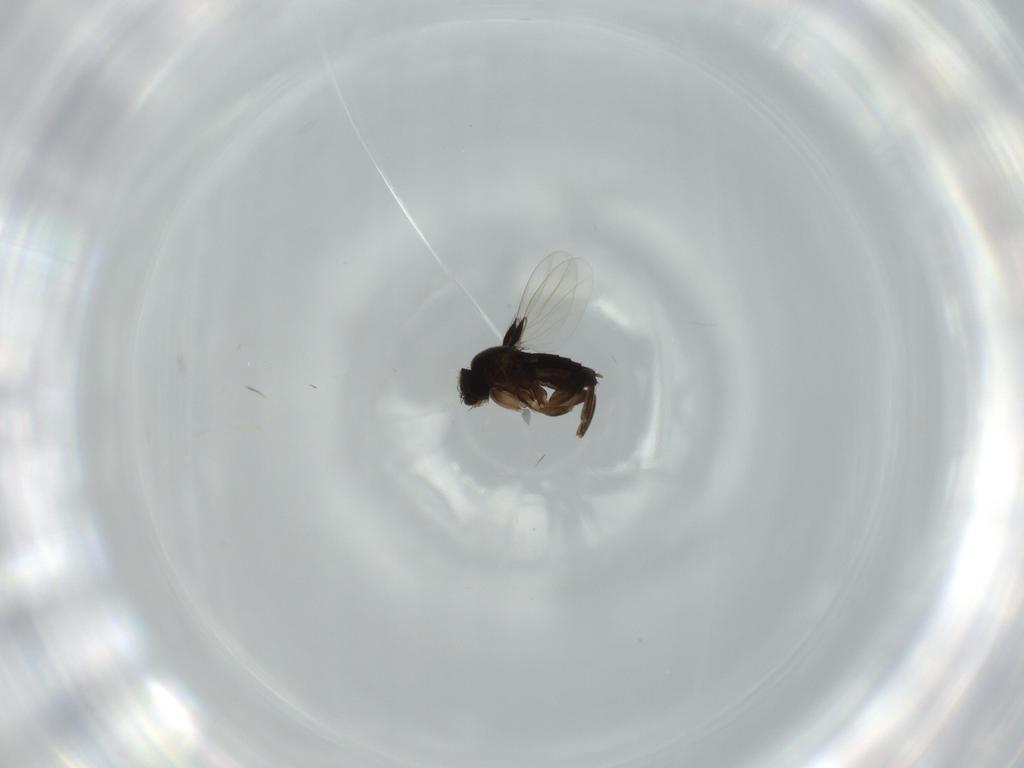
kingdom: Animalia
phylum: Arthropoda
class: Insecta
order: Diptera
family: Phoridae
